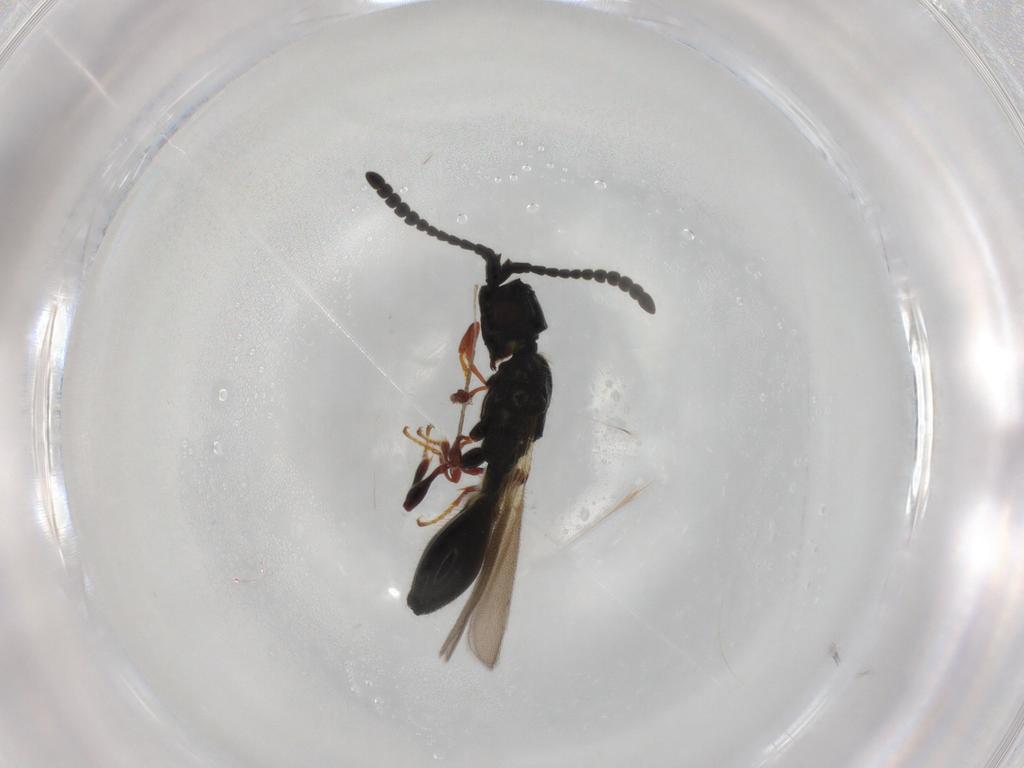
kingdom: Animalia
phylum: Arthropoda
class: Insecta
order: Hymenoptera
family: Diapriidae
